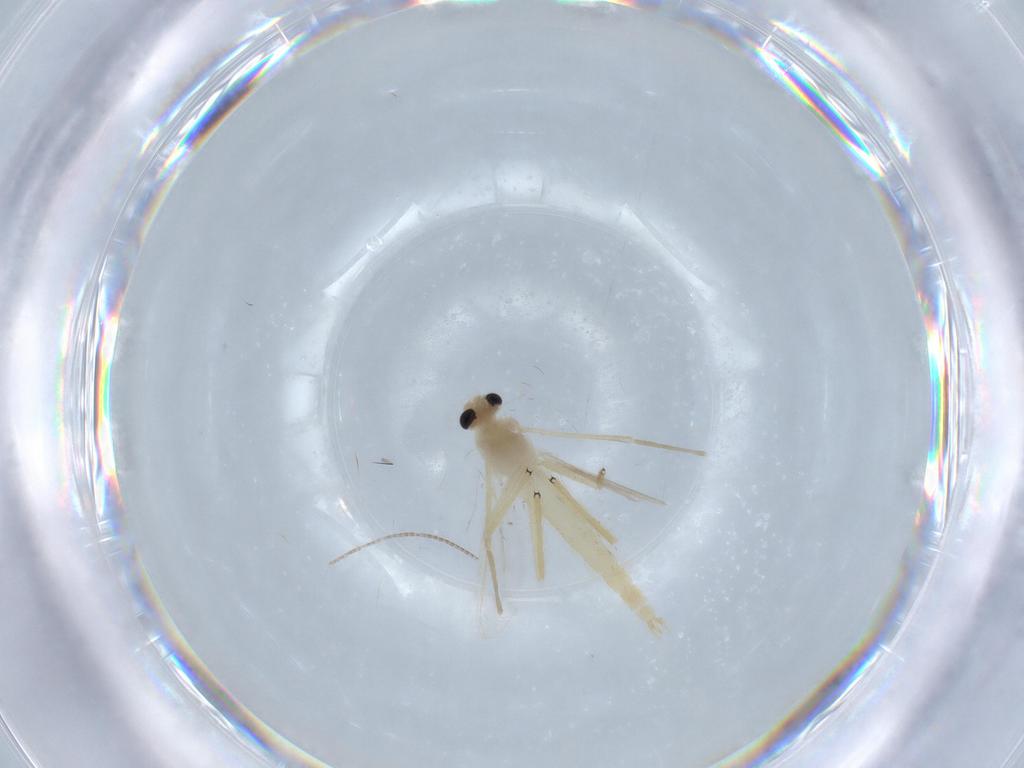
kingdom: Animalia
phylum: Arthropoda
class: Insecta
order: Diptera
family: Chironomidae
